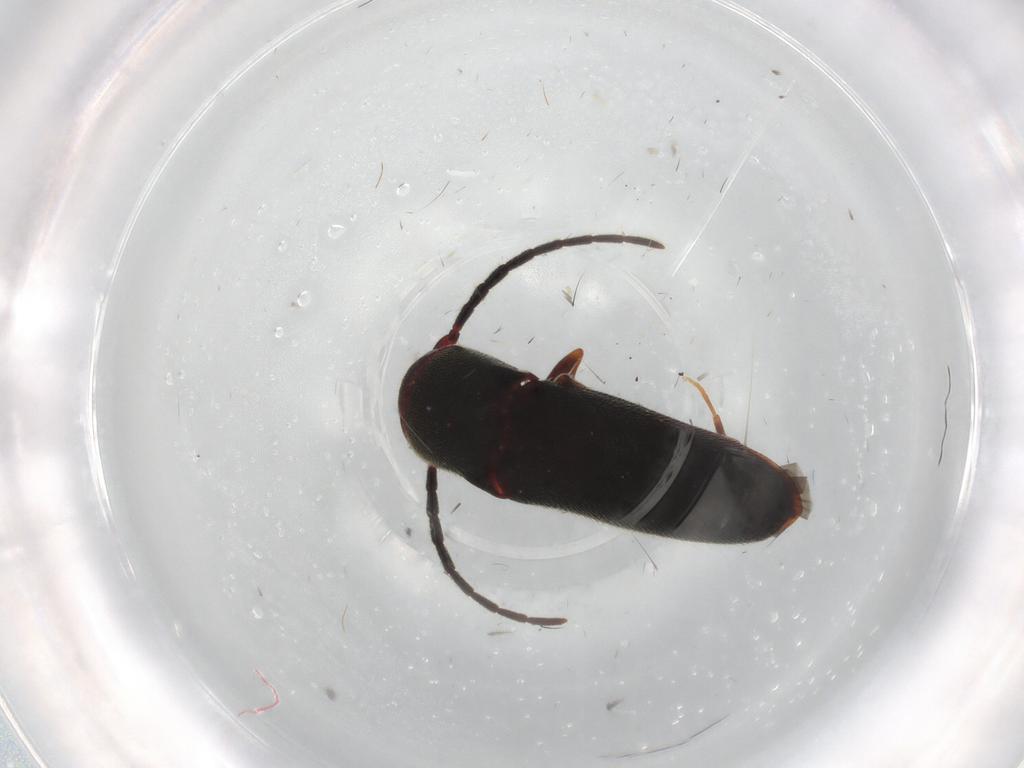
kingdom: Animalia
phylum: Arthropoda
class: Insecta
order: Coleoptera
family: Eucnemidae
